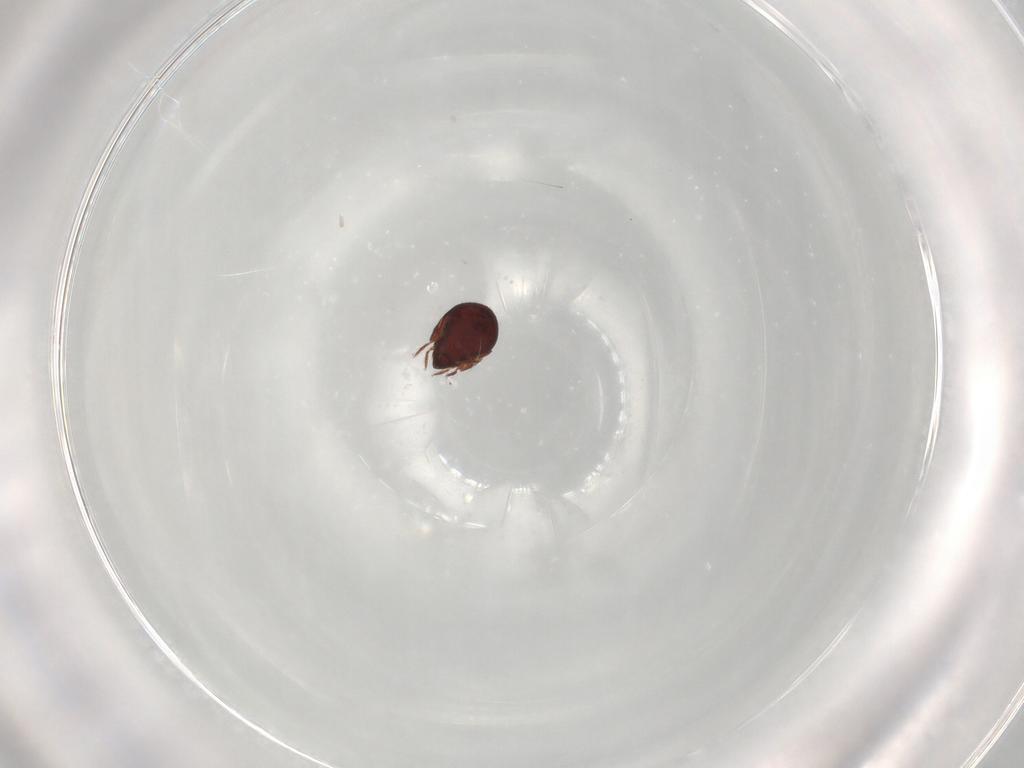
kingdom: Animalia
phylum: Arthropoda
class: Arachnida
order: Sarcoptiformes
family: Humerobatidae
